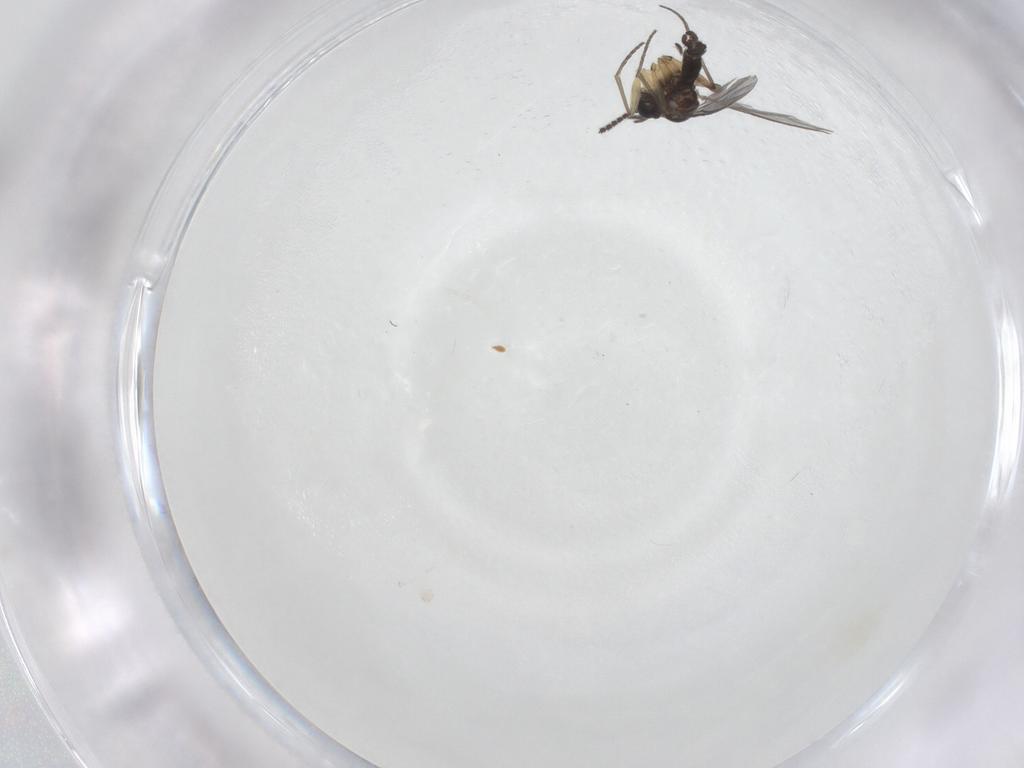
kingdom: Animalia
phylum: Arthropoda
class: Insecta
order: Diptera
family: Sciaridae
